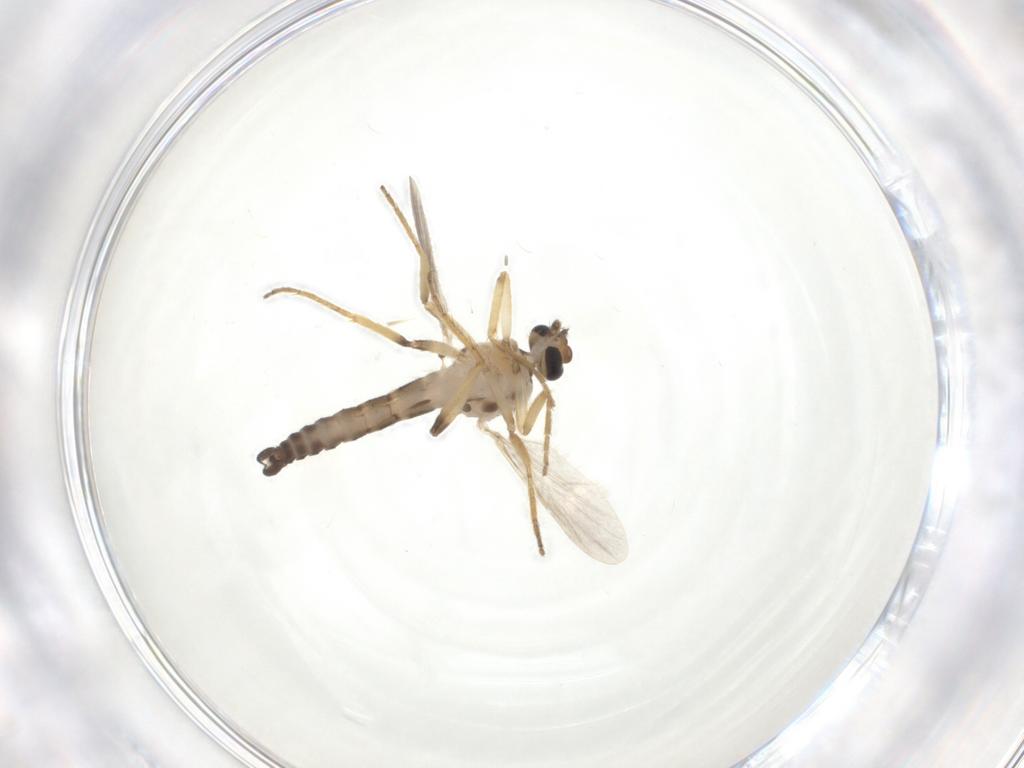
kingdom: Animalia
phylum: Arthropoda
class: Insecta
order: Diptera
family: Ceratopogonidae
